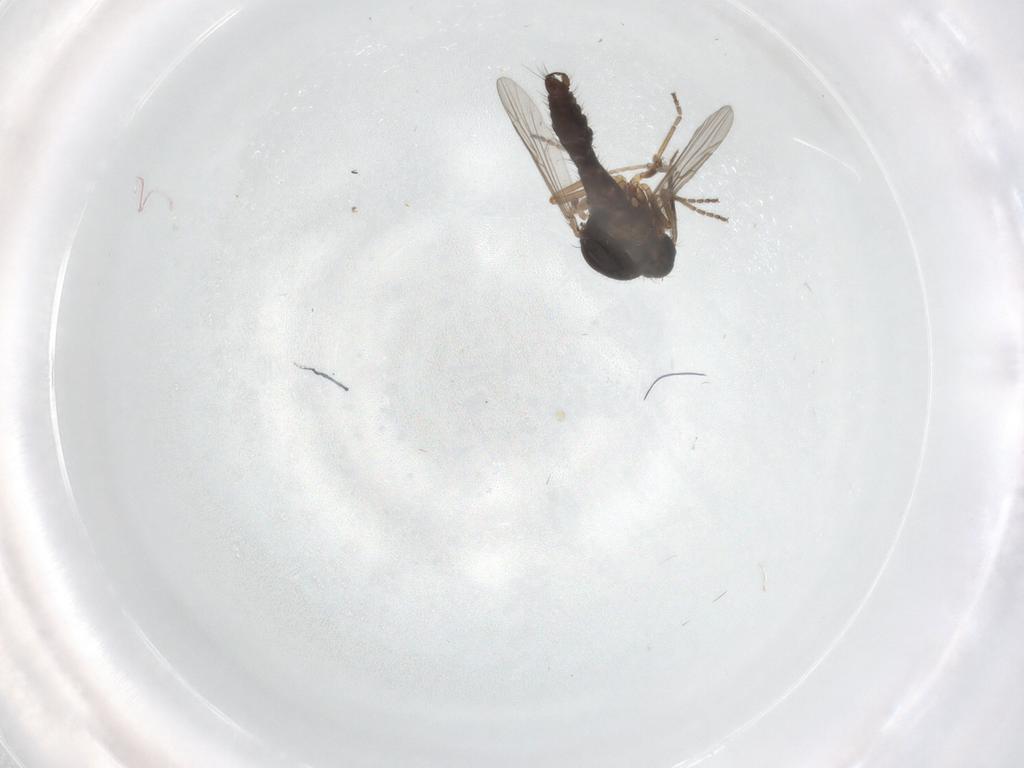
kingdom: Animalia
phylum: Arthropoda
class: Insecta
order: Diptera
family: Ceratopogonidae
